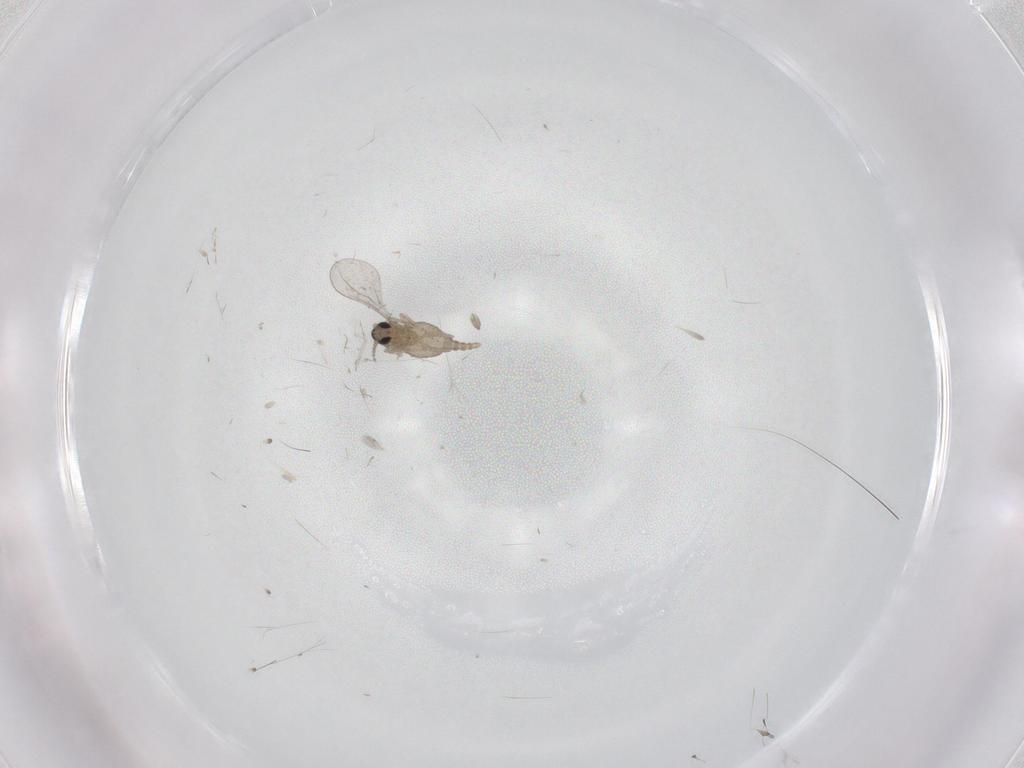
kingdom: Animalia
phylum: Arthropoda
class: Insecta
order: Diptera
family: Cecidomyiidae
